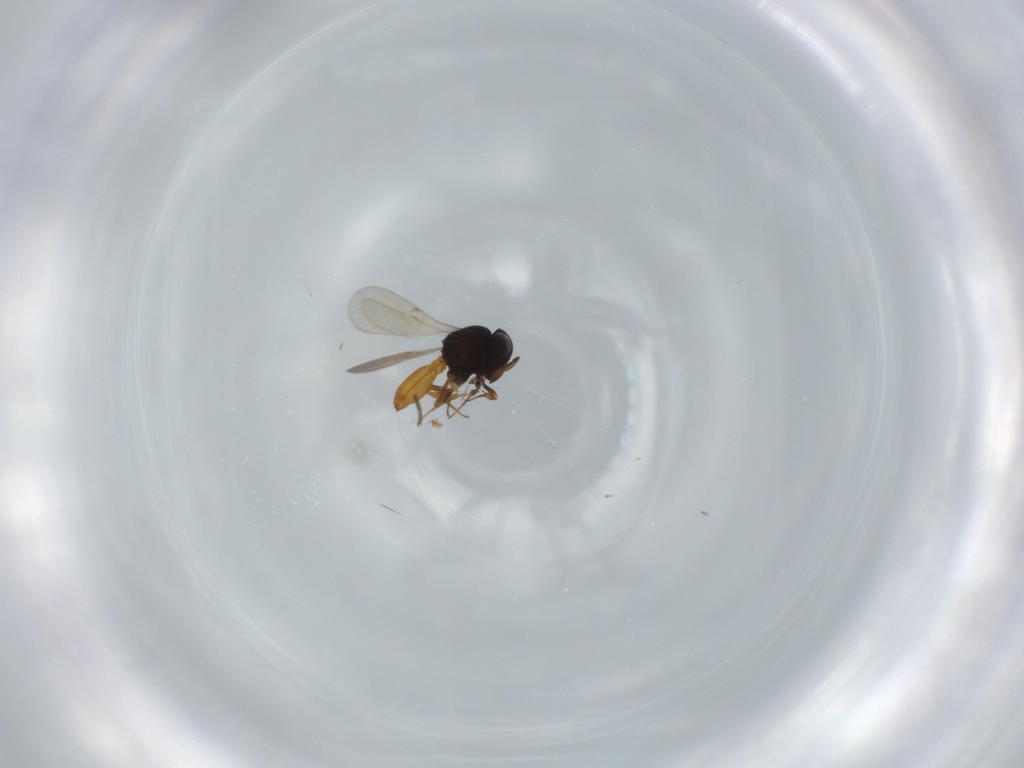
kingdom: Animalia
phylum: Arthropoda
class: Insecta
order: Hymenoptera
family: Scelionidae
